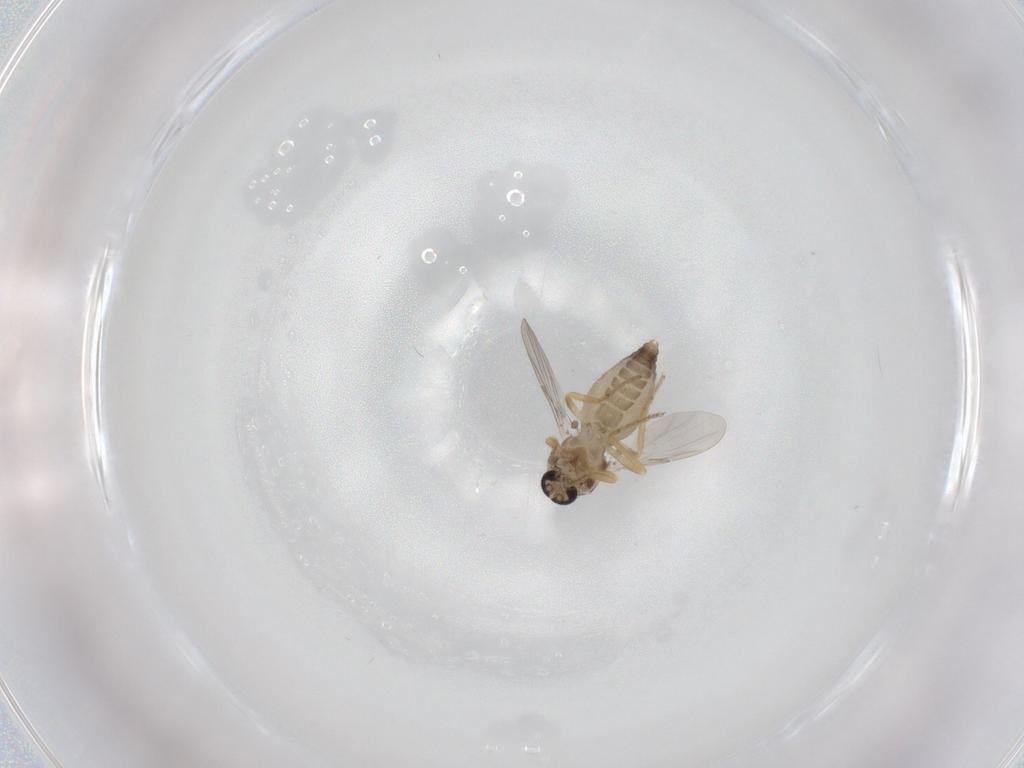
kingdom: Animalia
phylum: Arthropoda
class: Insecta
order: Diptera
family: Ceratopogonidae
